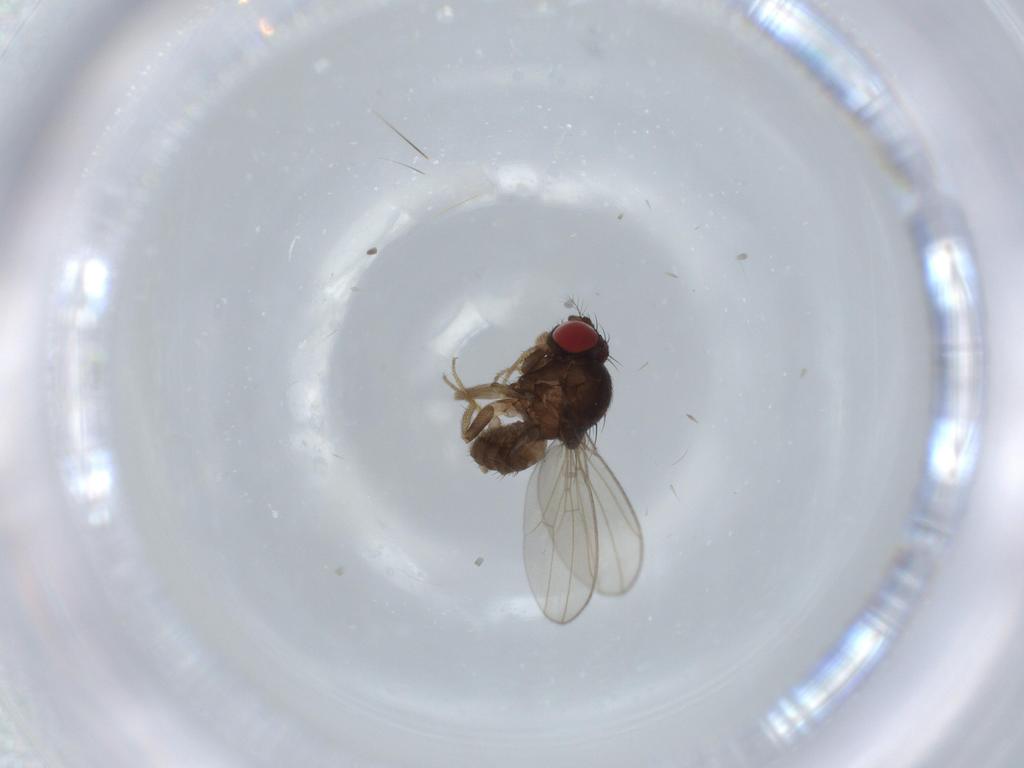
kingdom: Animalia
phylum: Arthropoda
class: Insecta
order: Diptera
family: Drosophilidae
